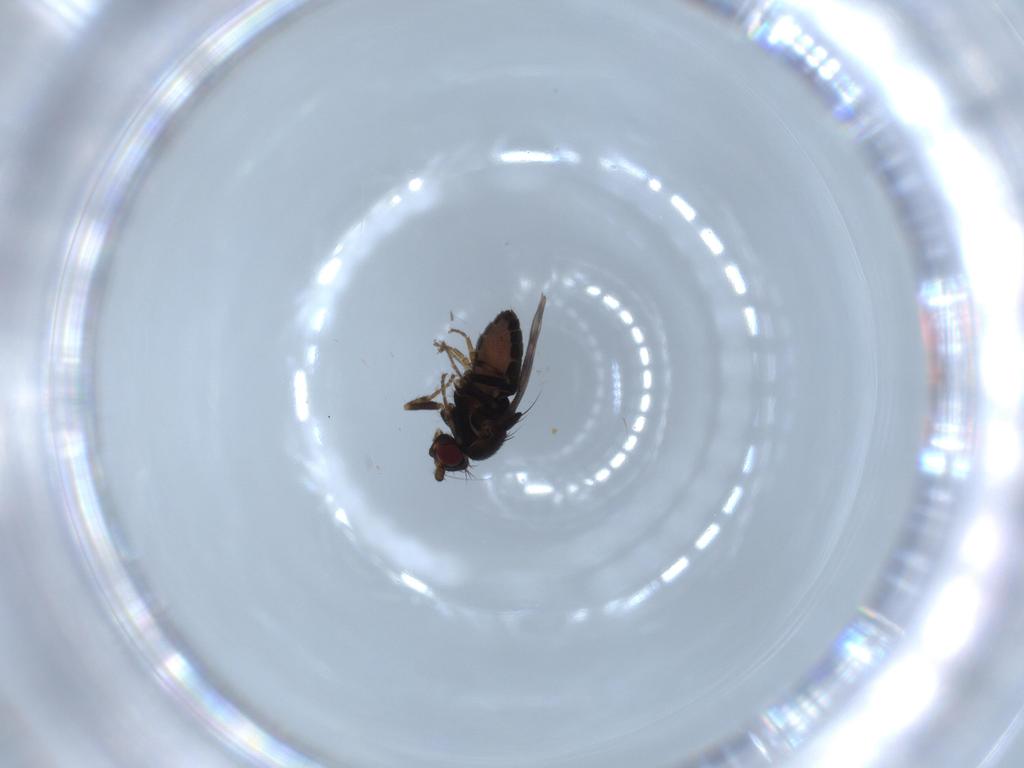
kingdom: Animalia
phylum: Arthropoda
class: Insecta
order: Diptera
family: Sphaeroceridae
